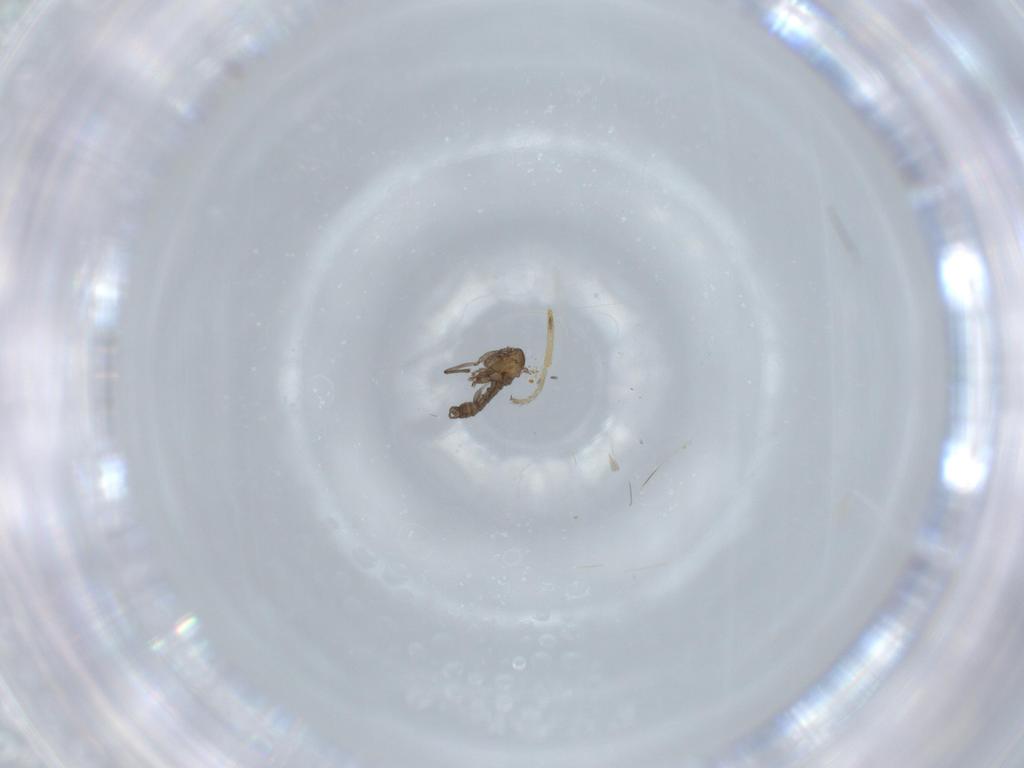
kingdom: Animalia
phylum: Arthropoda
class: Insecta
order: Diptera
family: Sciaridae
